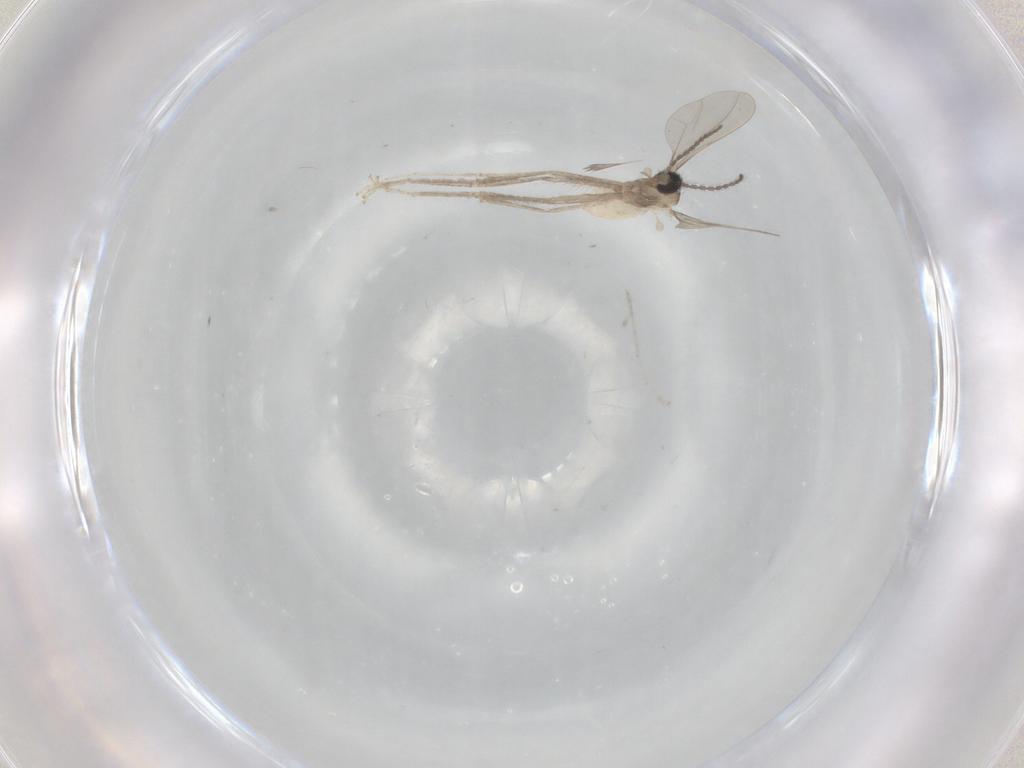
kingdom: Animalia
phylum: Arthropoda
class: Insecta
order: Diptera
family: Cecidomyiidae
